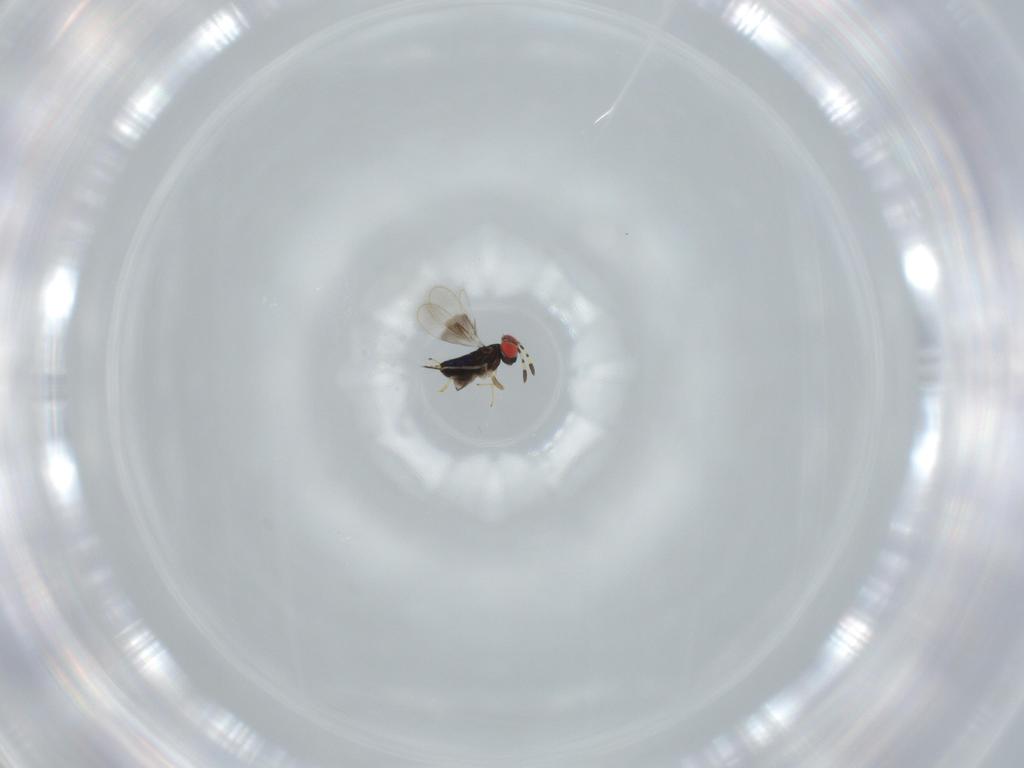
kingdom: Animalia
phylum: Arthropoda
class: Insecta
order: Hymenoptera
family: Azotidae
